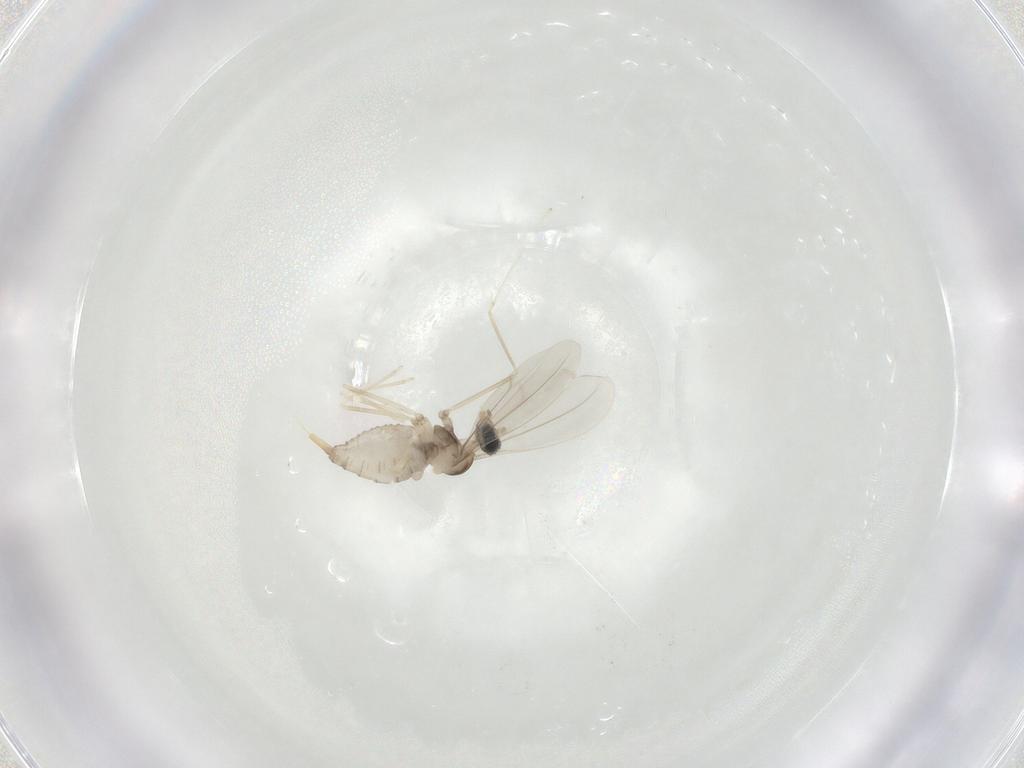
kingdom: Animalia
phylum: Arthropoda
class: Insecta
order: Diptera
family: Cecidomyiidae
